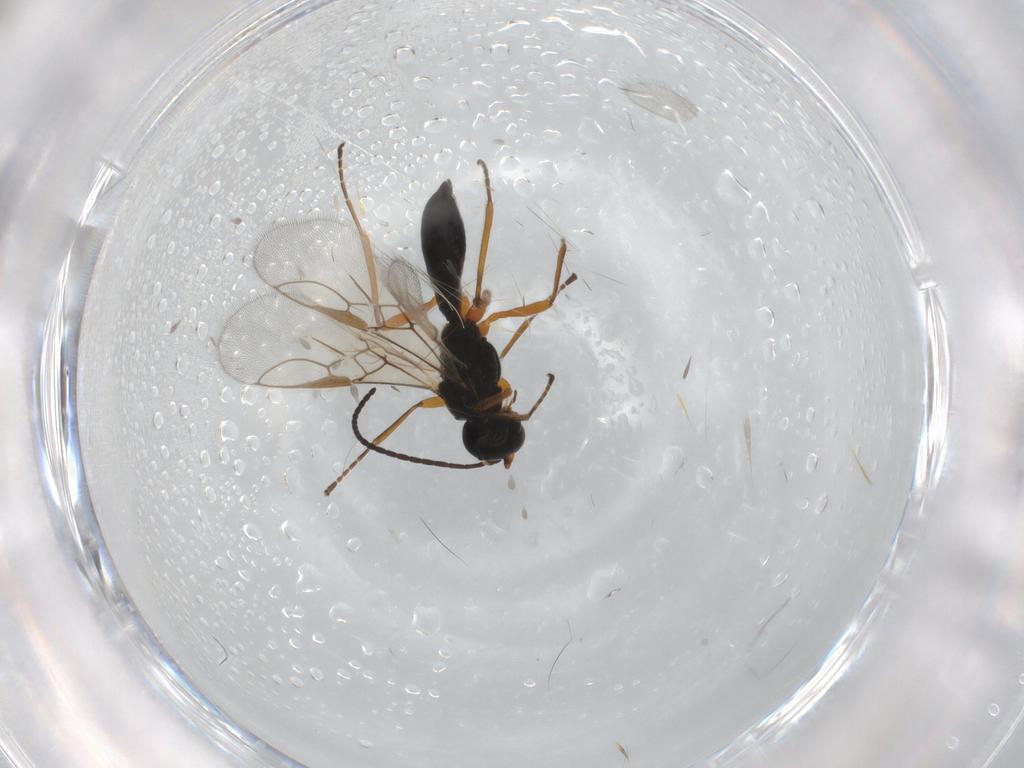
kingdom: Animalia
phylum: Arthropoda
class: Insecta
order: Hymenoptera
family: Braconidae
